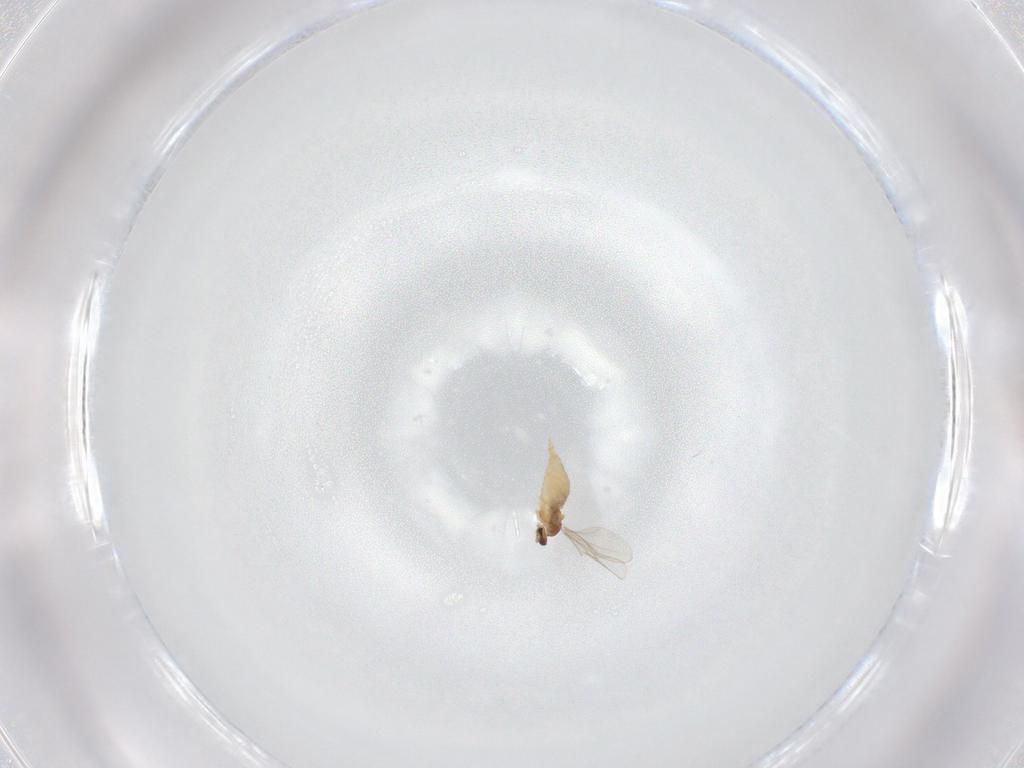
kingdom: Animalia
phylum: Arthropoda
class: Insecta
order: Diptera
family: Cecidomyiidae
